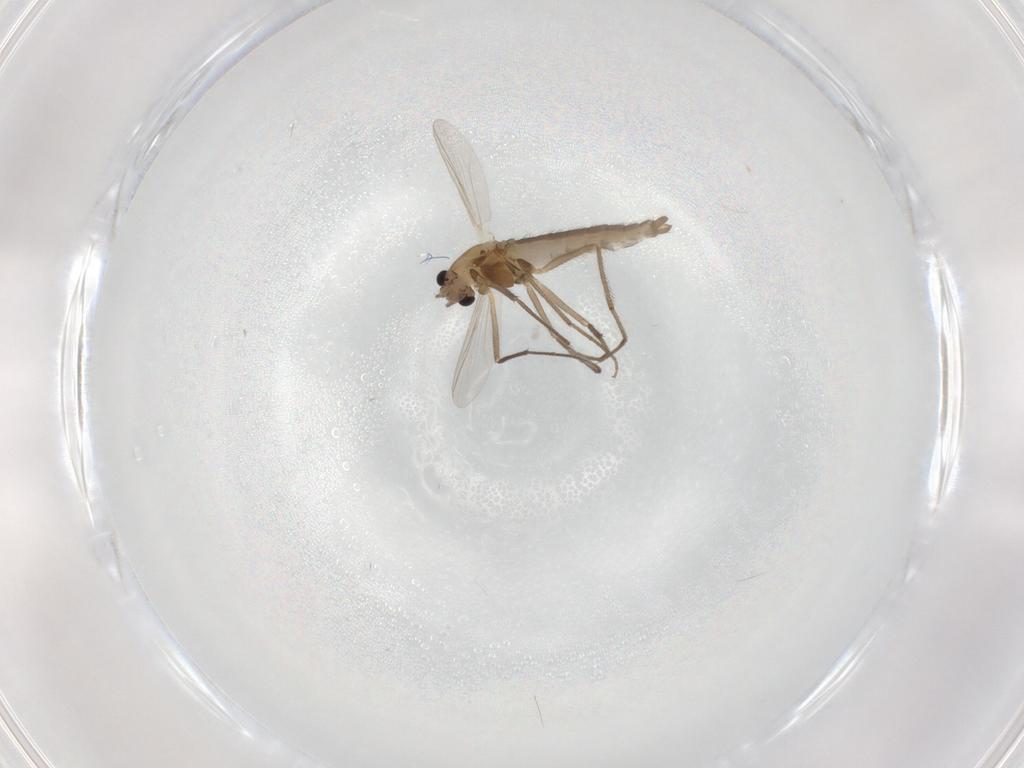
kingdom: Animalia
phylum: Arthropoda
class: Insecta
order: Diptera
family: Chironomidae
